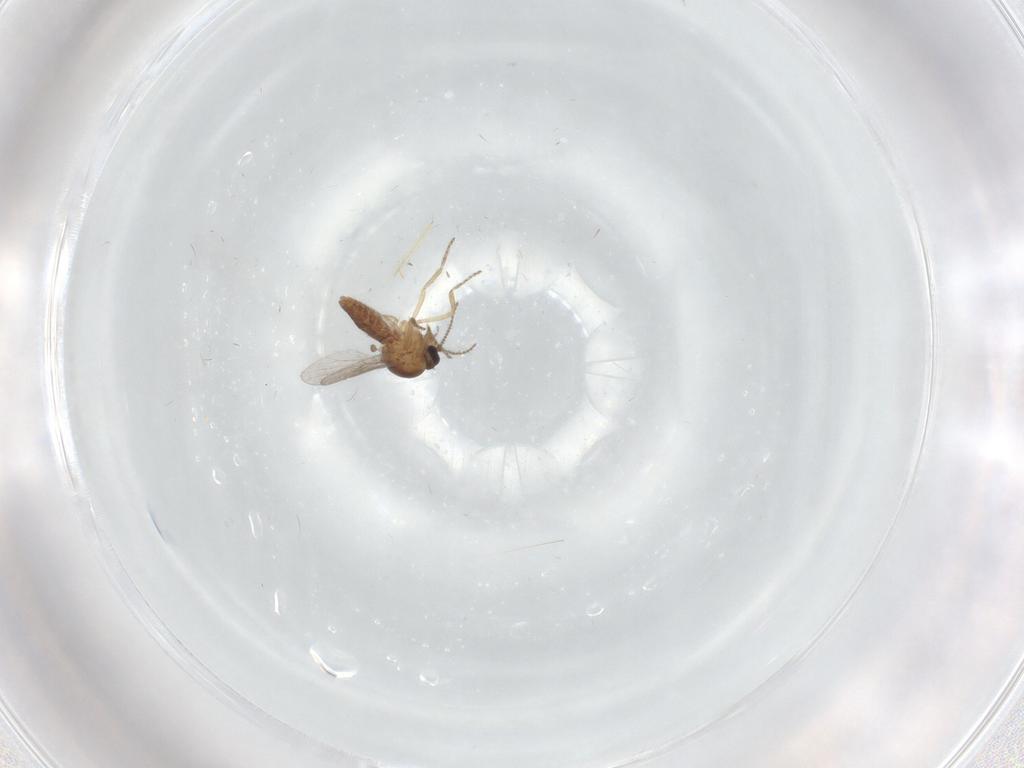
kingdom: Animalia
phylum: Arthropoda
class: Insecta
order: Diptera
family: Ceratopogonidae
